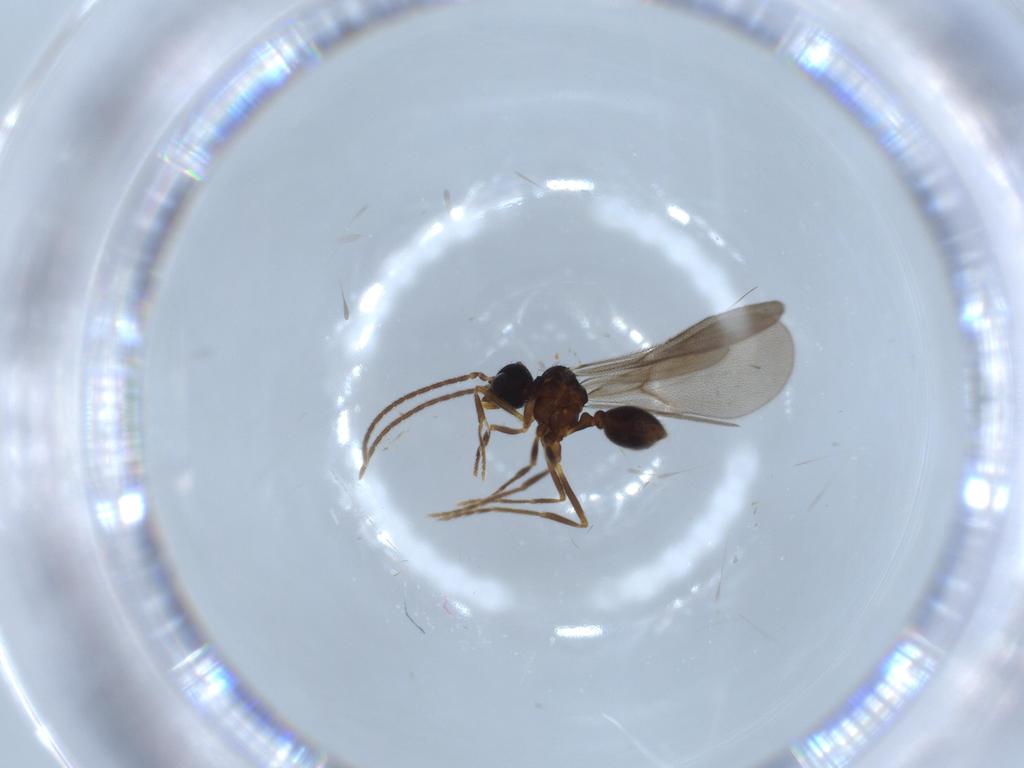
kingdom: Animalia
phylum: Arthropoda
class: Insecta
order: Hymenoptera
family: Formicidae
